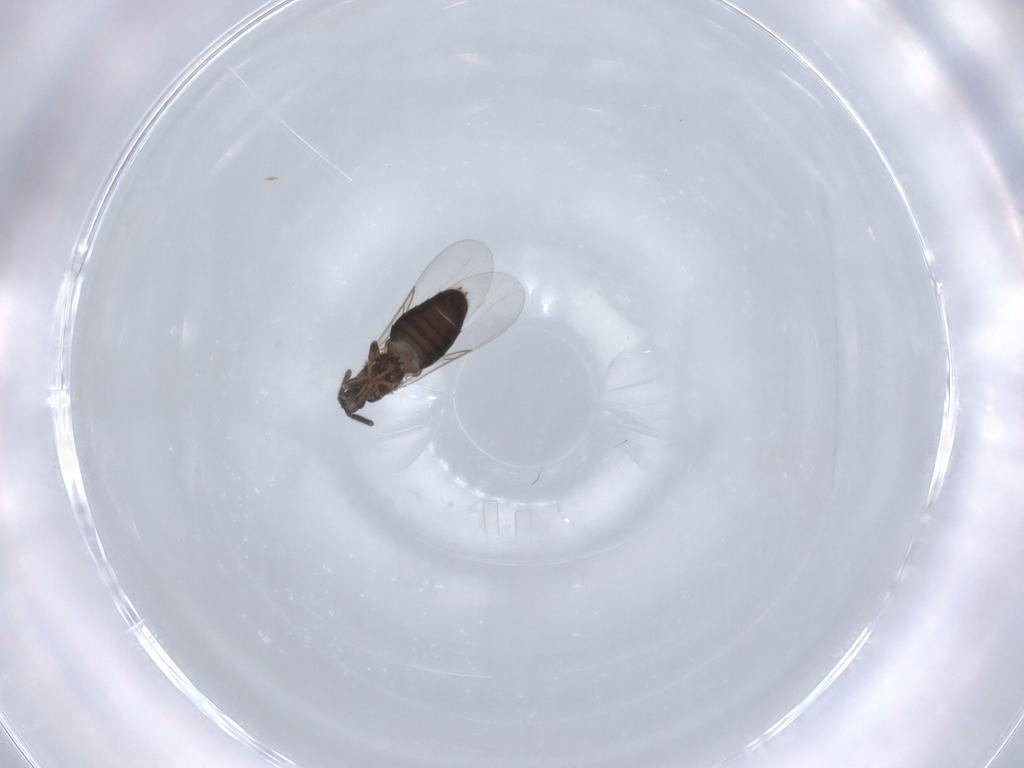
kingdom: Animalia
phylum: Arthropoda
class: Insecta
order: Diptera
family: Scatopsidae
